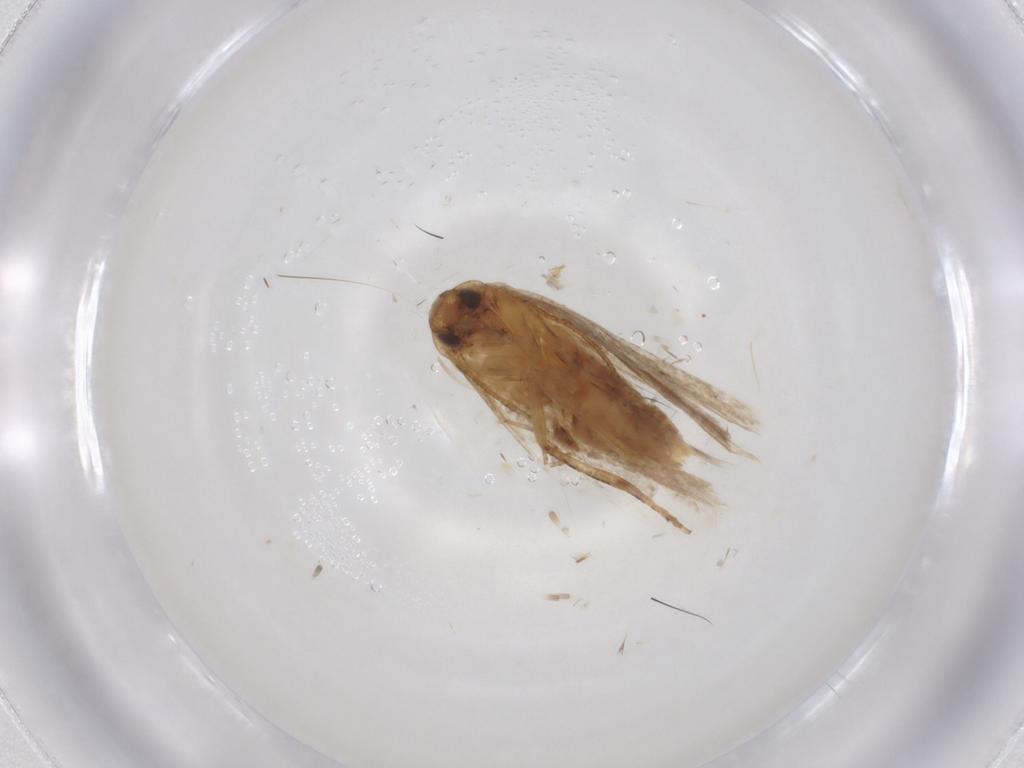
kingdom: Animalia
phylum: Arthropoda
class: Insecta
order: Lepidoptera
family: Gelechiidae
